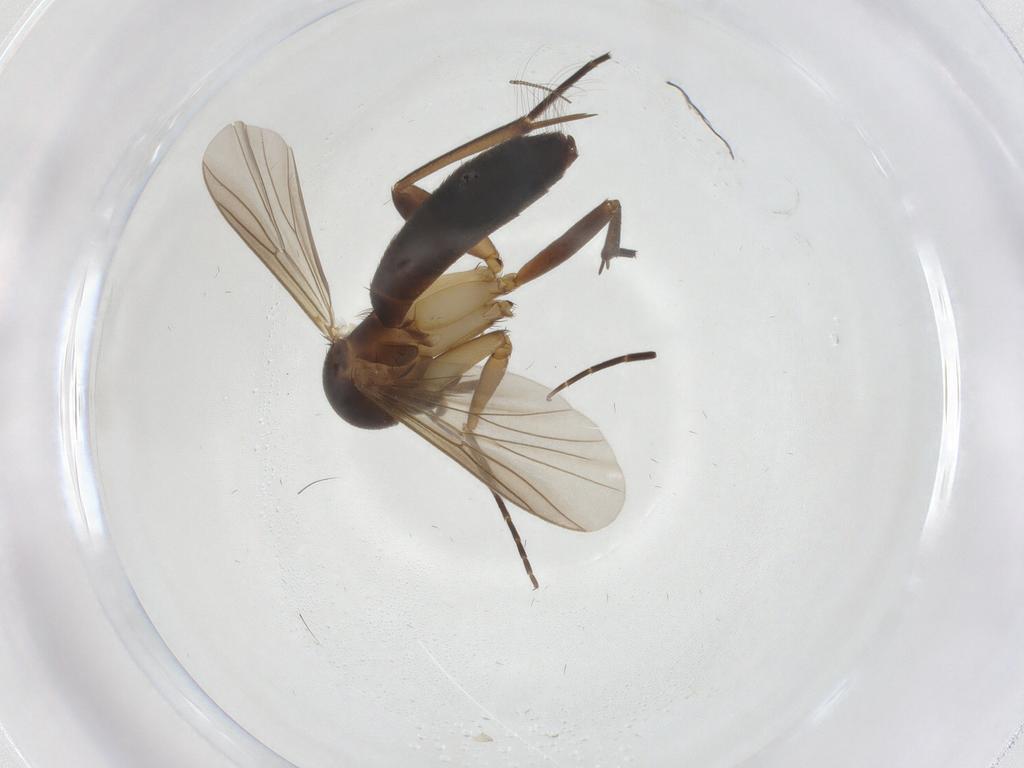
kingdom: Animalia
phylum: Arthropoda
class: Insecta
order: Diptera
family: Mycetophilidae
